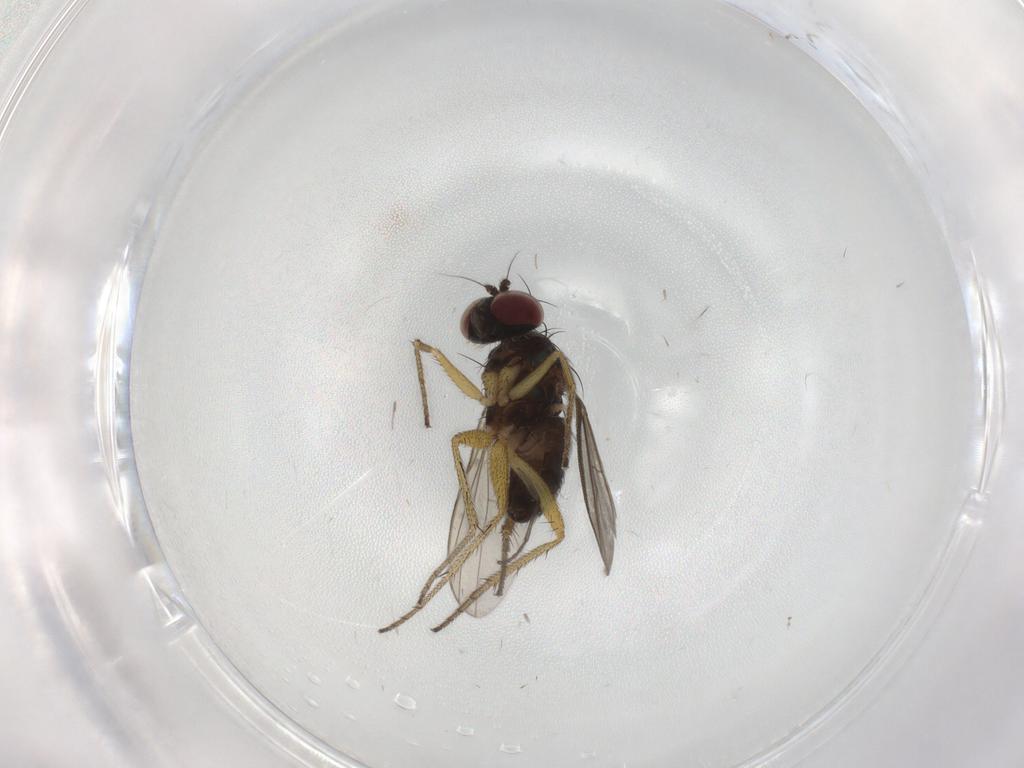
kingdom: Animalia
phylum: Arthropoda
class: Insecta
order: Diptera
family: Dolichopodidae
